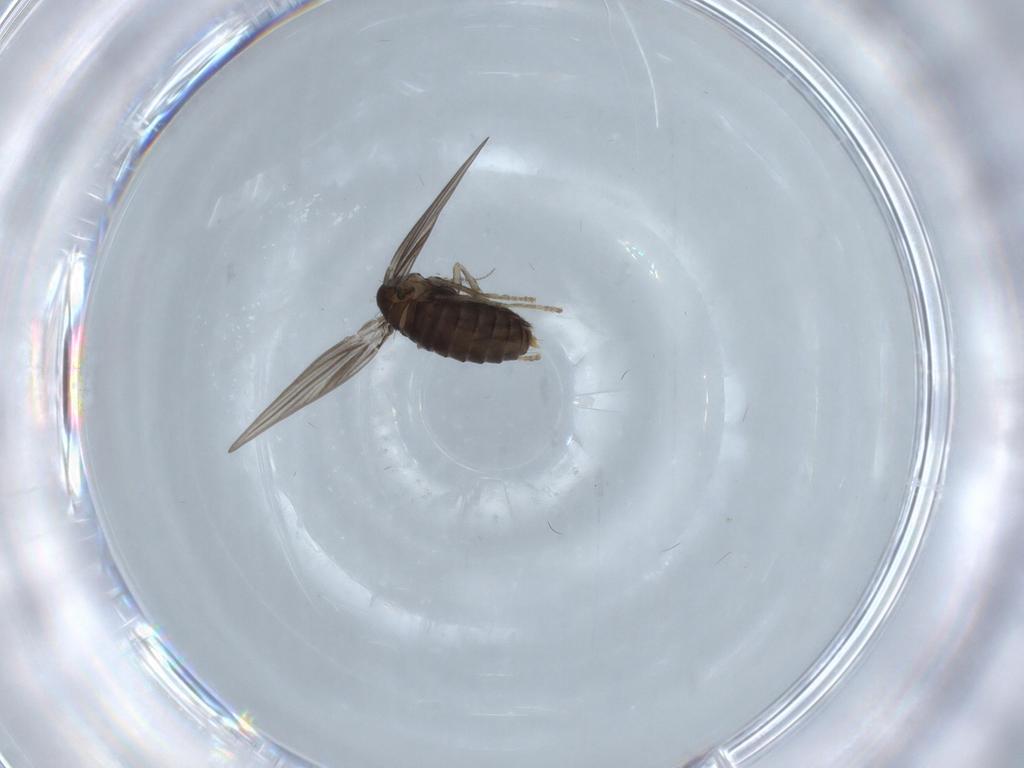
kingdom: Animalia
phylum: Arthropoda
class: Insecta
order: Diptera
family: Psychodidae
